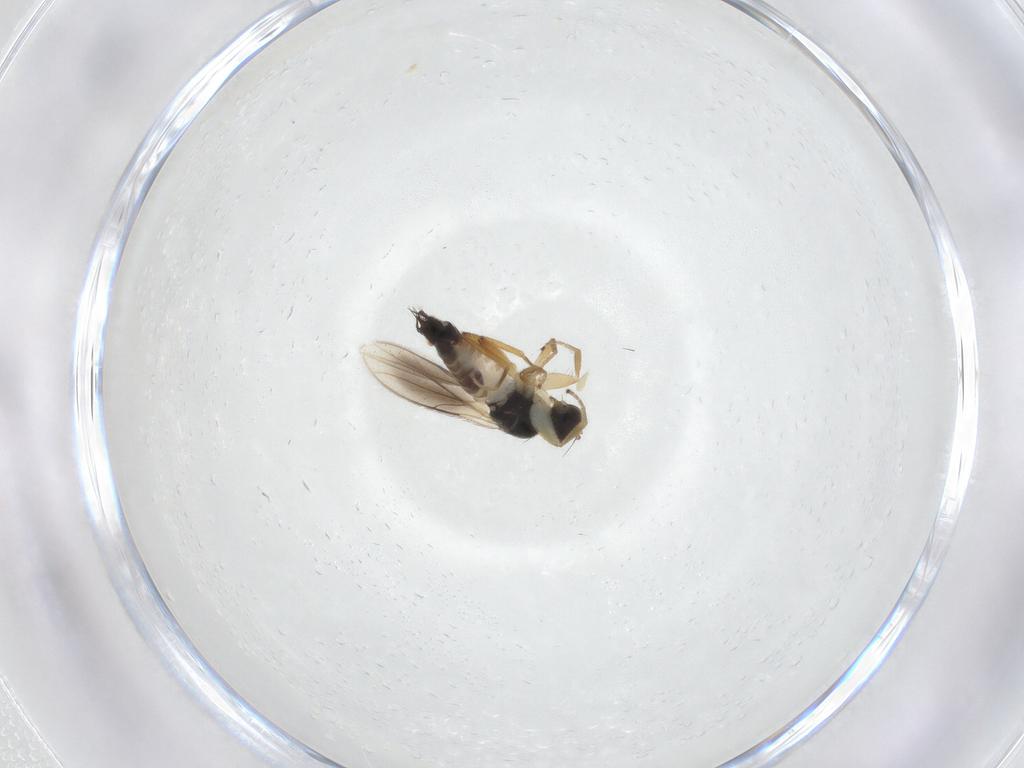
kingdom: Animalia
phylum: Arthropoda
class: Insecta
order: Diptera
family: Hybotidae
